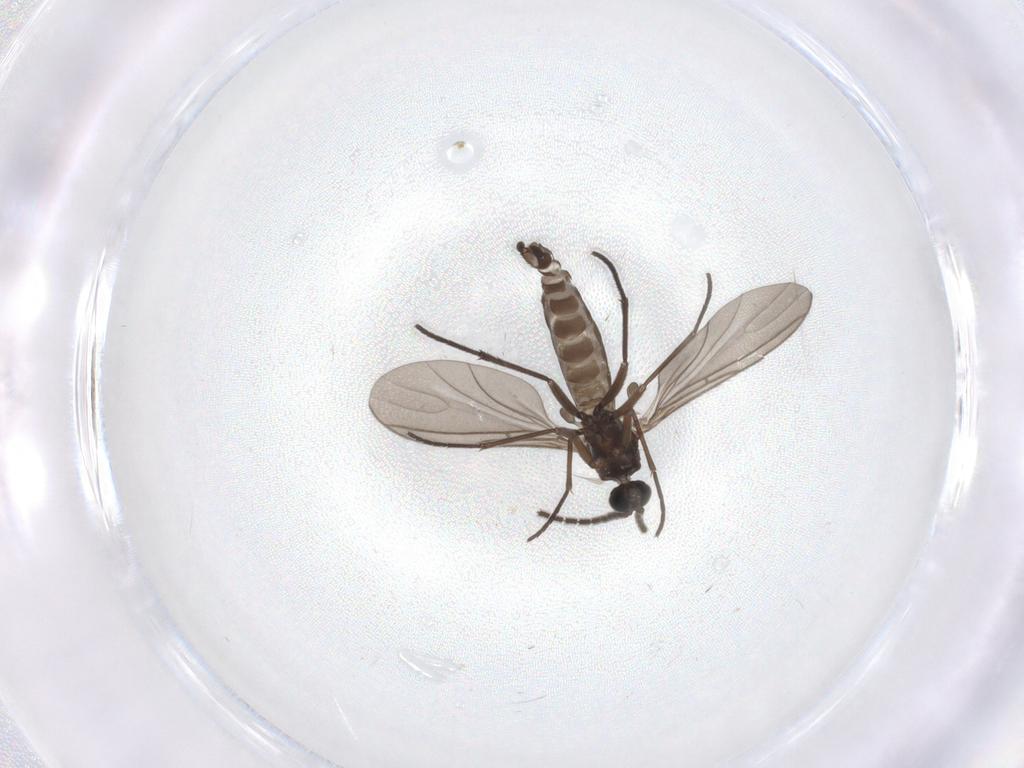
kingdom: Animalia
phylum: Arthropoda
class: Insecta
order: Diptera
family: Sciaridae
